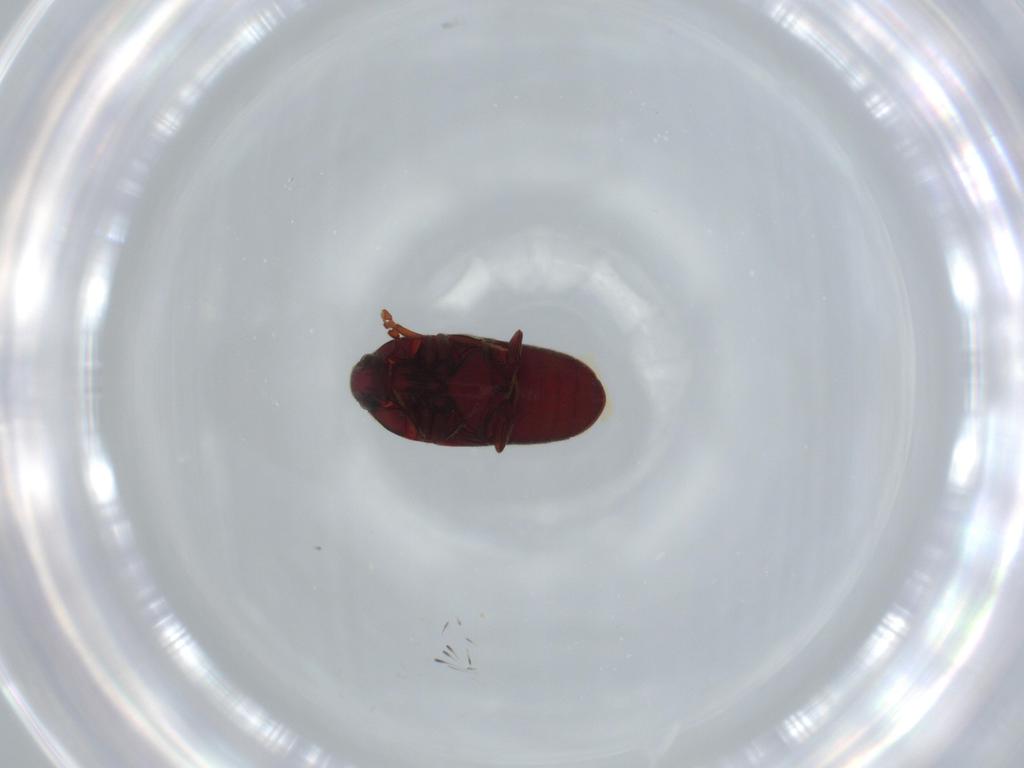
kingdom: Animalia
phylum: Arthropoda
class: Insecta
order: Coleoptera
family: Throscidae
